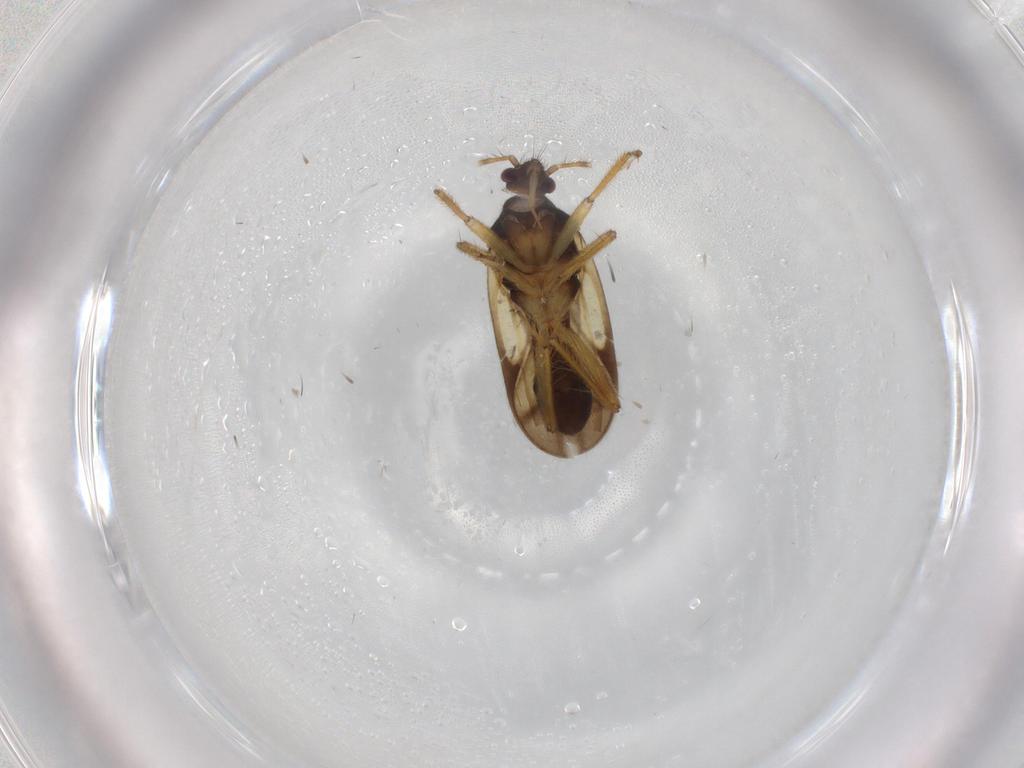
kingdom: Animalia
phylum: Arthropoda
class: Insecta
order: Hemiptera
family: Ceratocombidae
